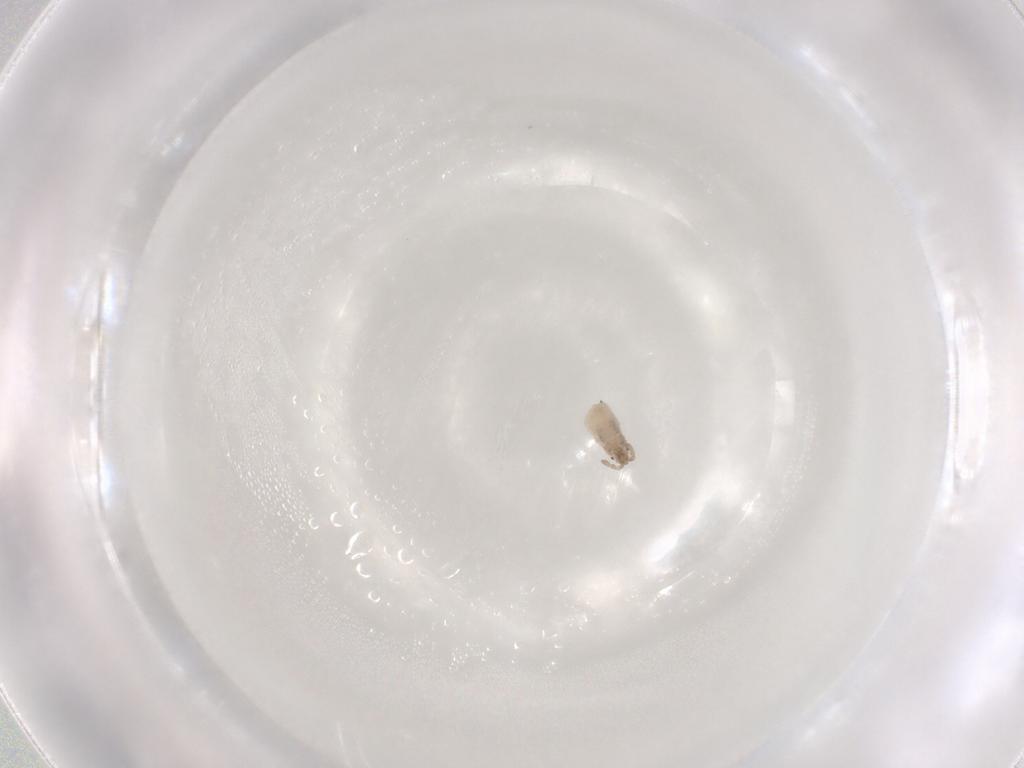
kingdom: Animalia
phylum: Arthropoda
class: Insecta
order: Hemiptera
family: Aphididae
